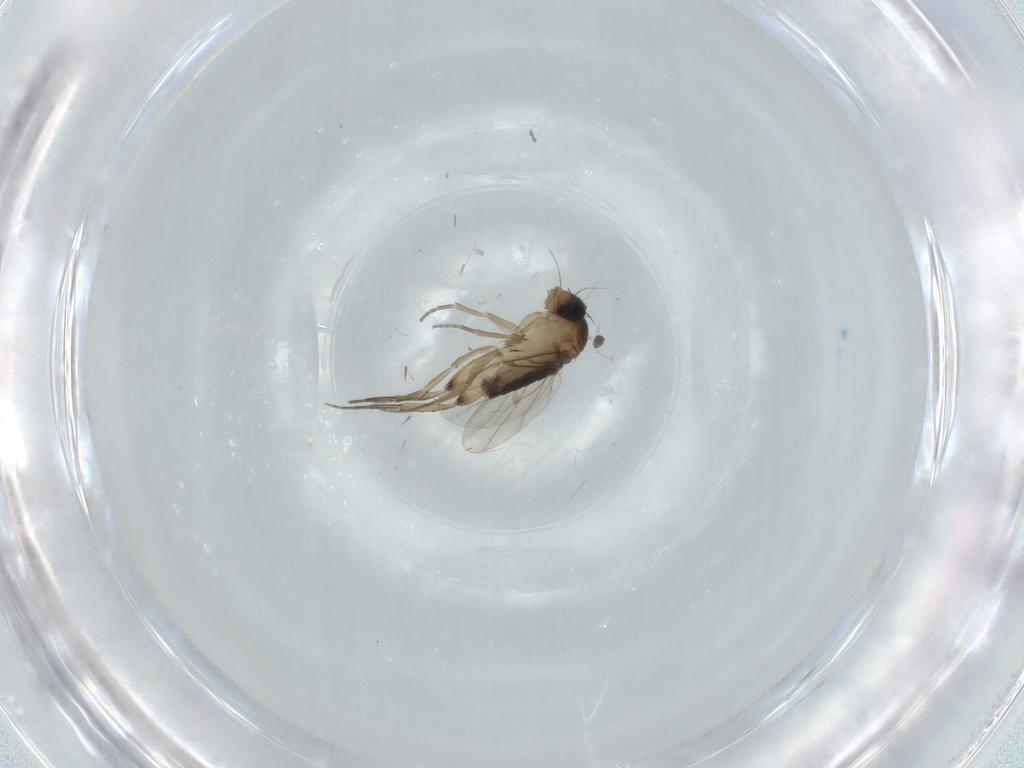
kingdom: Animalia
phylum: Arthropoda
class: Insecta
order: Diptera
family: Phoridae
